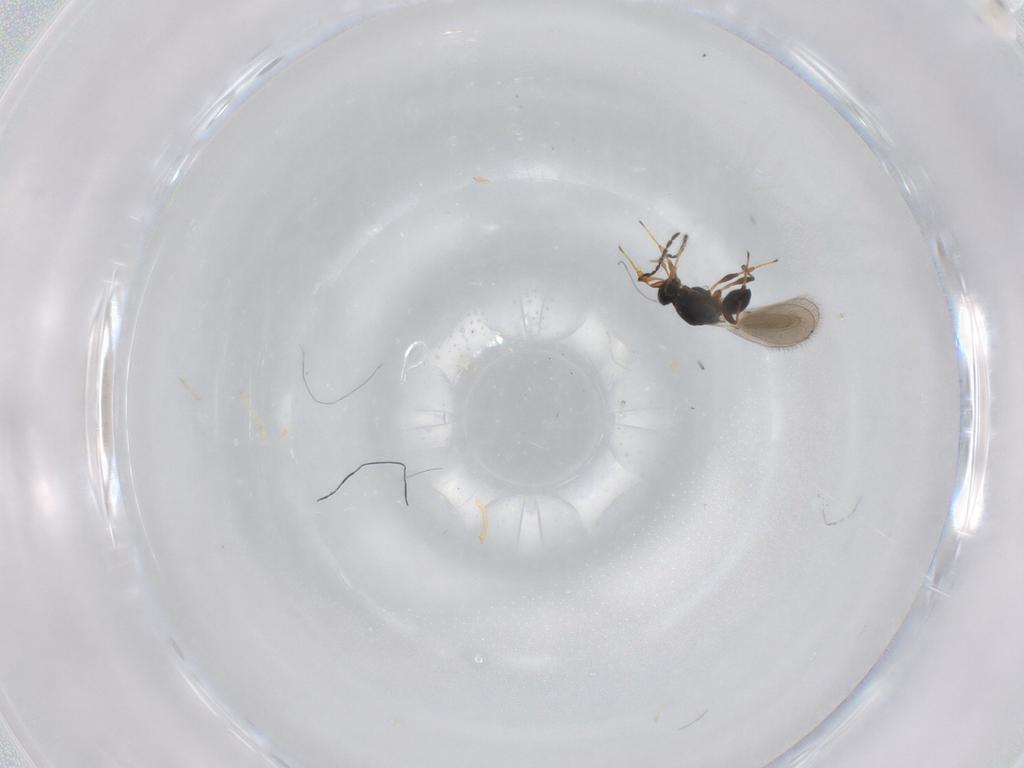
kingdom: Animalia
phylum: Arthropoda
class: Insecta
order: Hymenoptera
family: Platygastridae
